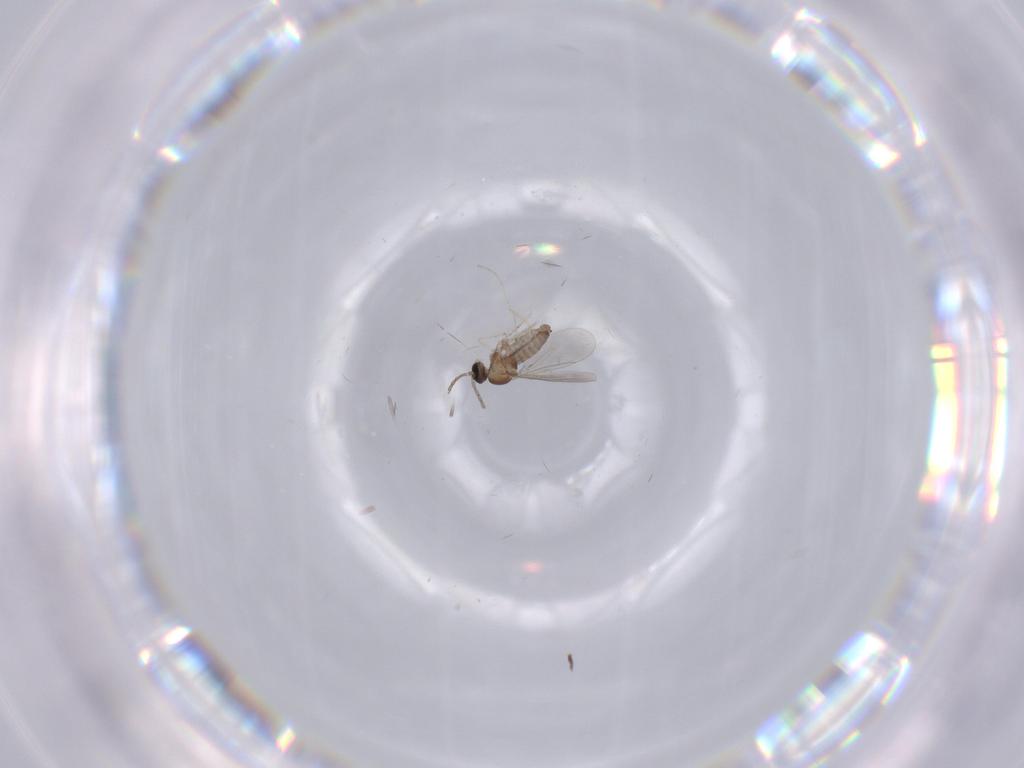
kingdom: Animalia
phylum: Arthropoda
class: Insecta
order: Diptera
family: Cecidomyiidae
